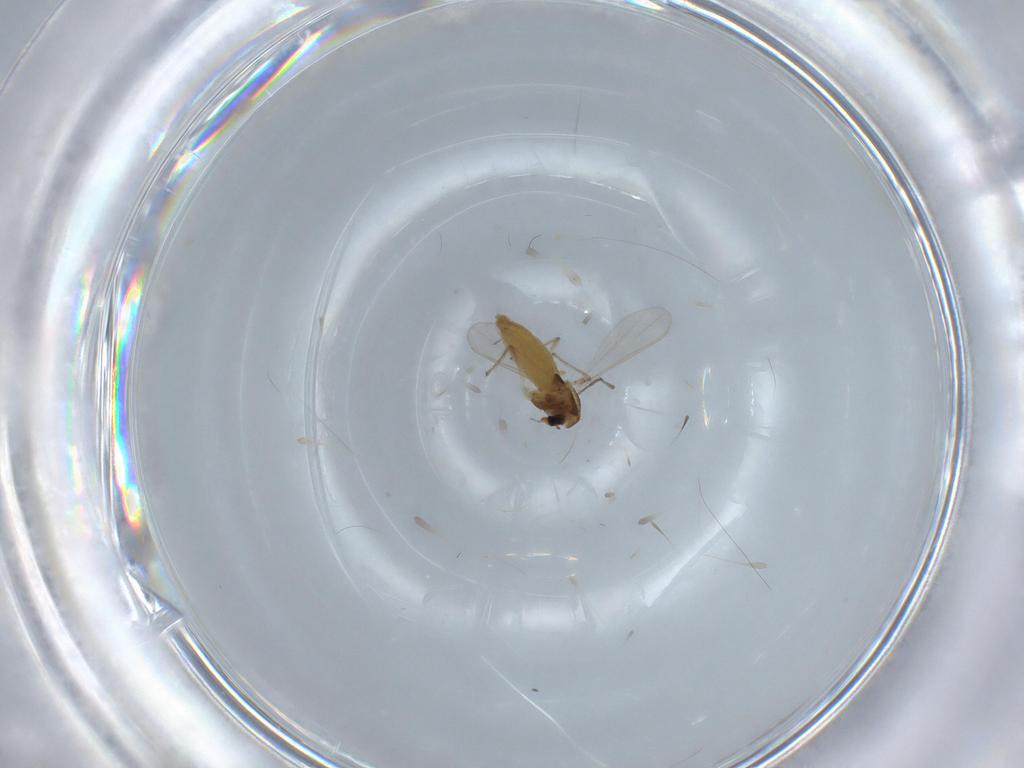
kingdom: Animalia
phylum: Arthropoda
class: Insecta
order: Diptera
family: Chironomidae
